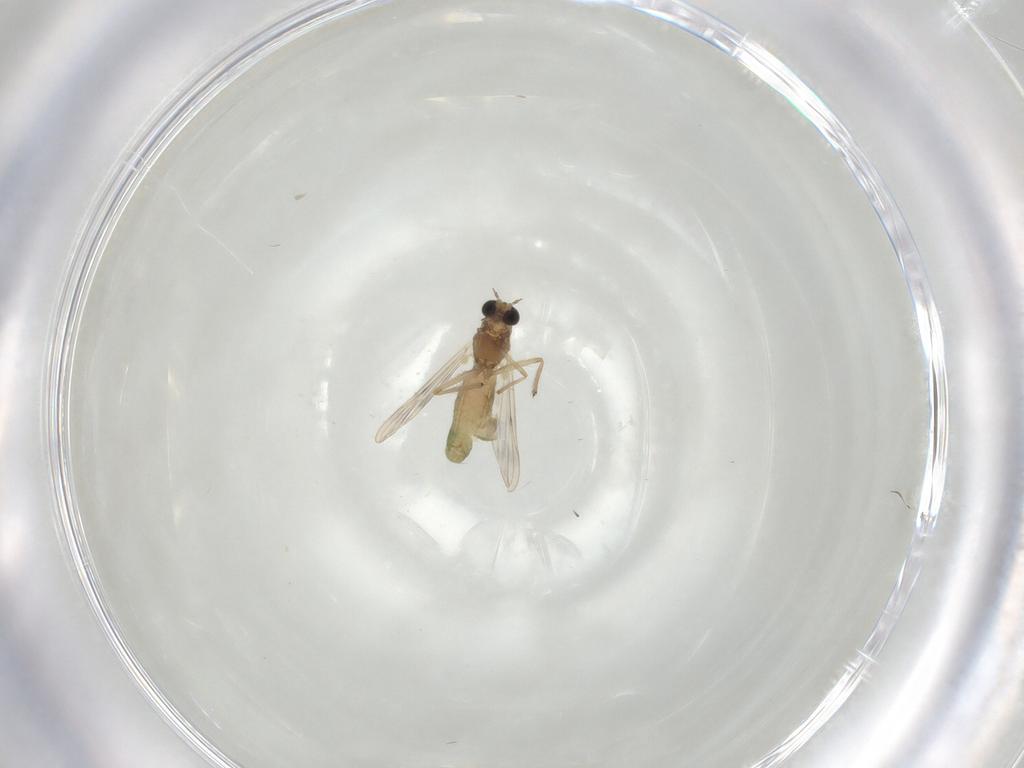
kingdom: Animalia
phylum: Arthropoda
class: Insecta
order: Diptera
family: Chironomidae
